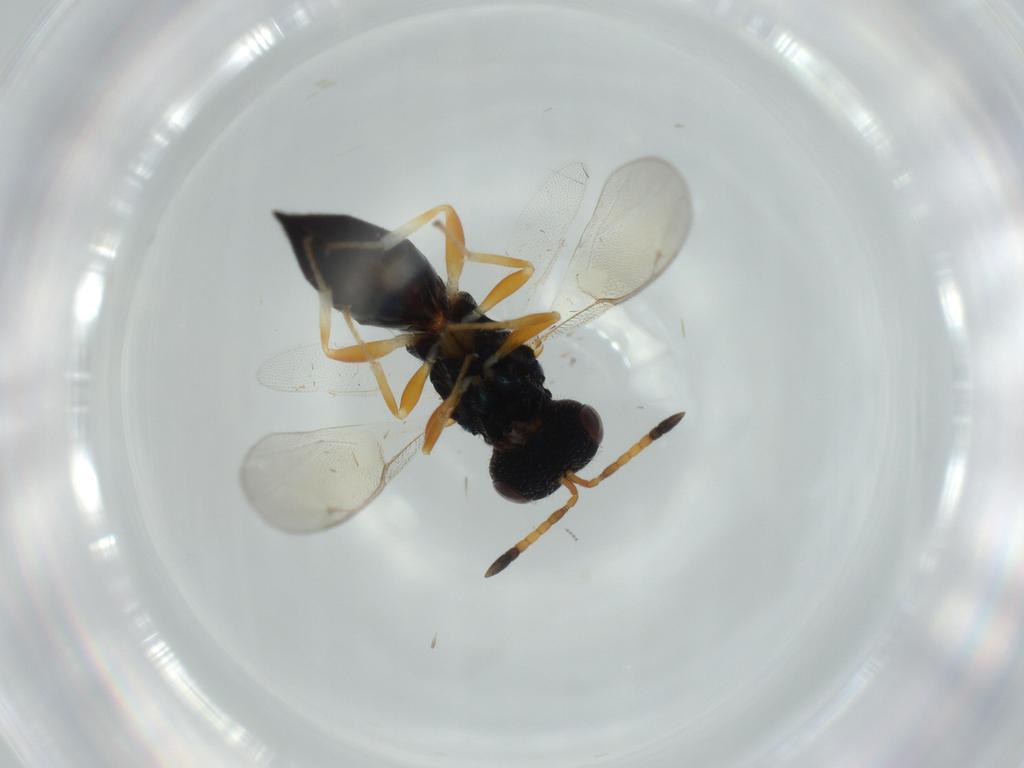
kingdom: Animalia
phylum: Arthropoda
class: Insecta
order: Hymenoptera
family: Pteromalidae
